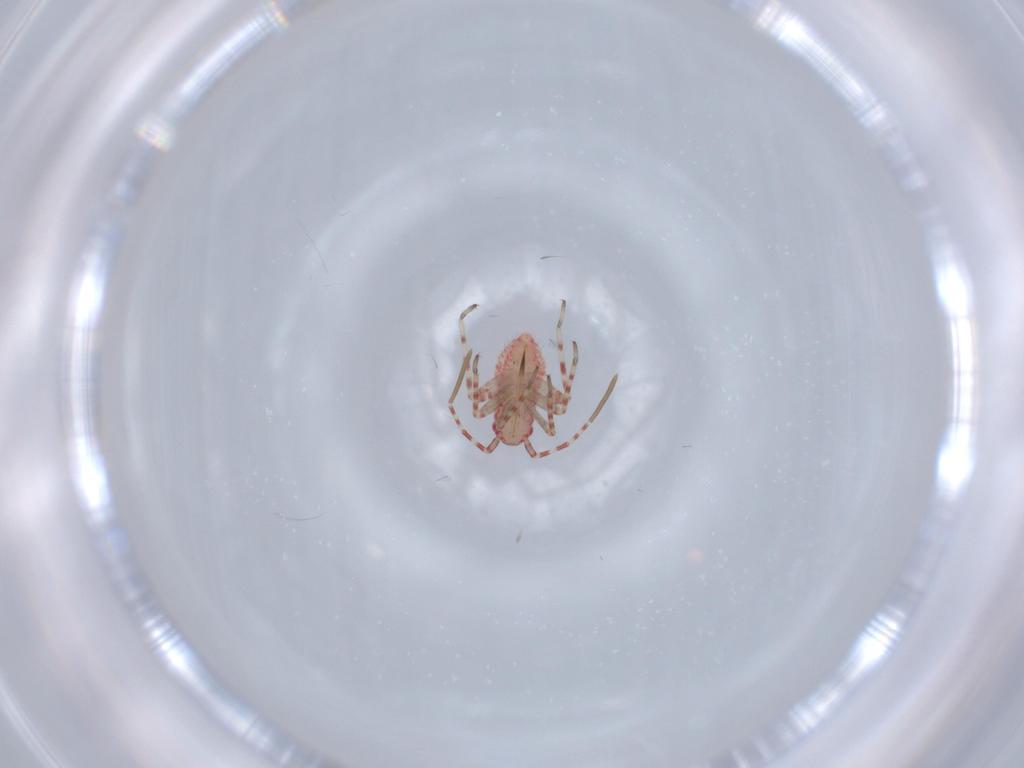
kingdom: Animalia
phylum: Arthropoda
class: Insecta
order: Hemiptera
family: Miridae
